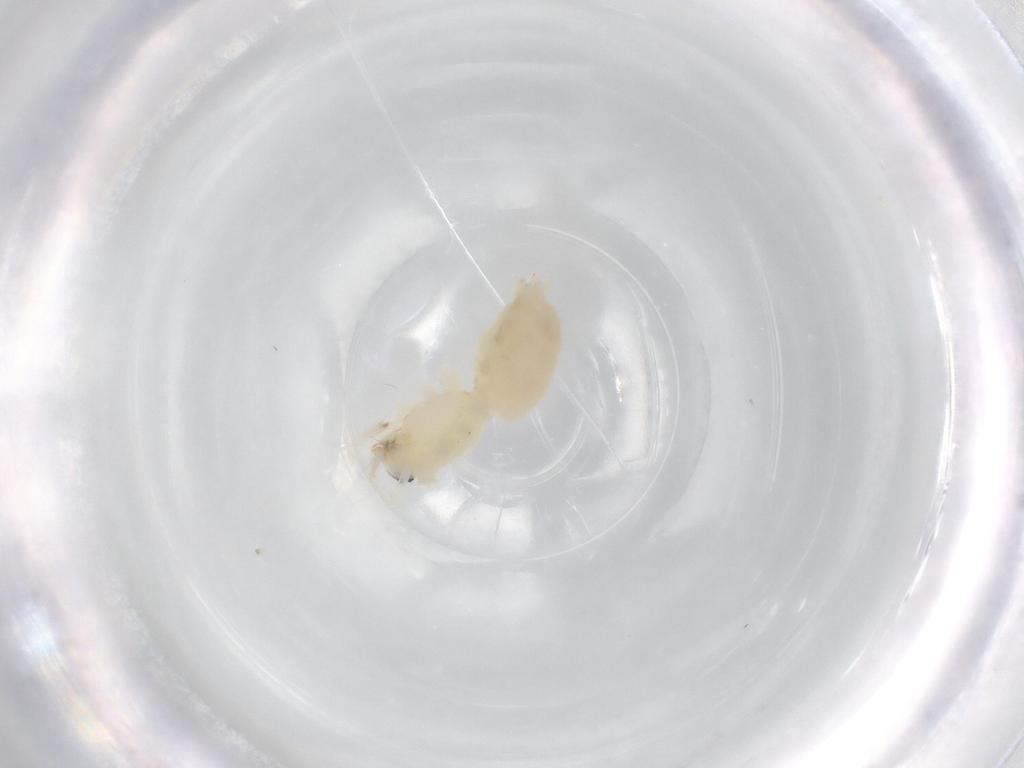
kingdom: Animalia
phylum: Arthropoda
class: Arachnida
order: Araneae
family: Anyphaenidae
